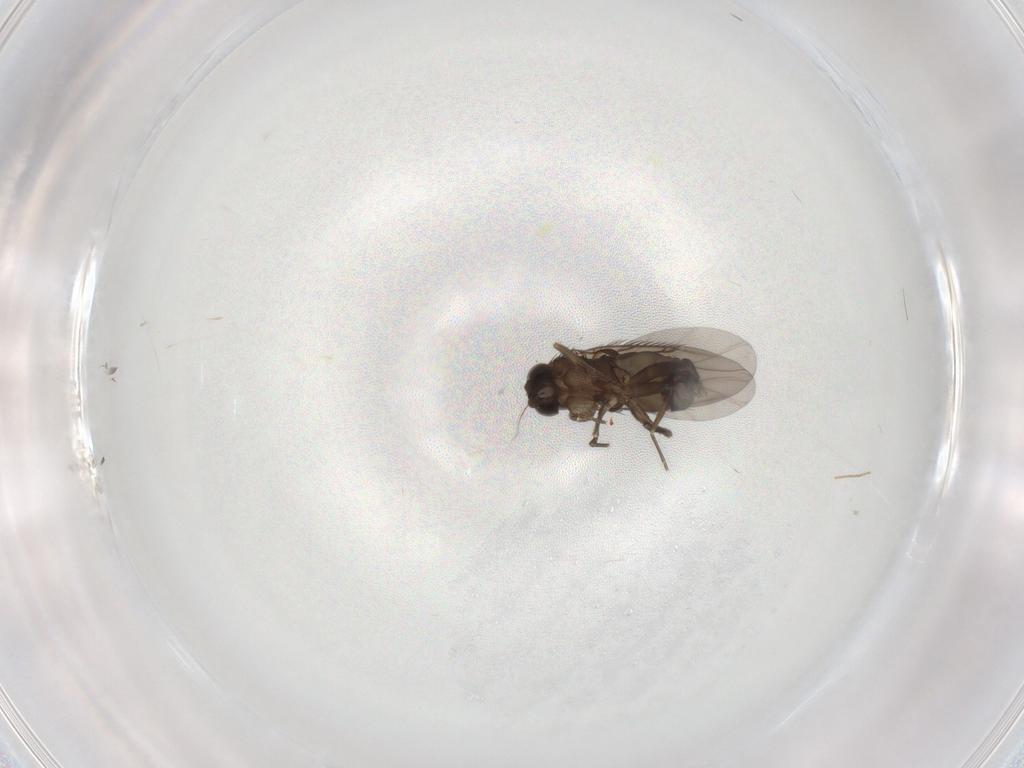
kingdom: Animalia
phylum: Arthropoda
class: Insecta
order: Diptera
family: Phoridae
